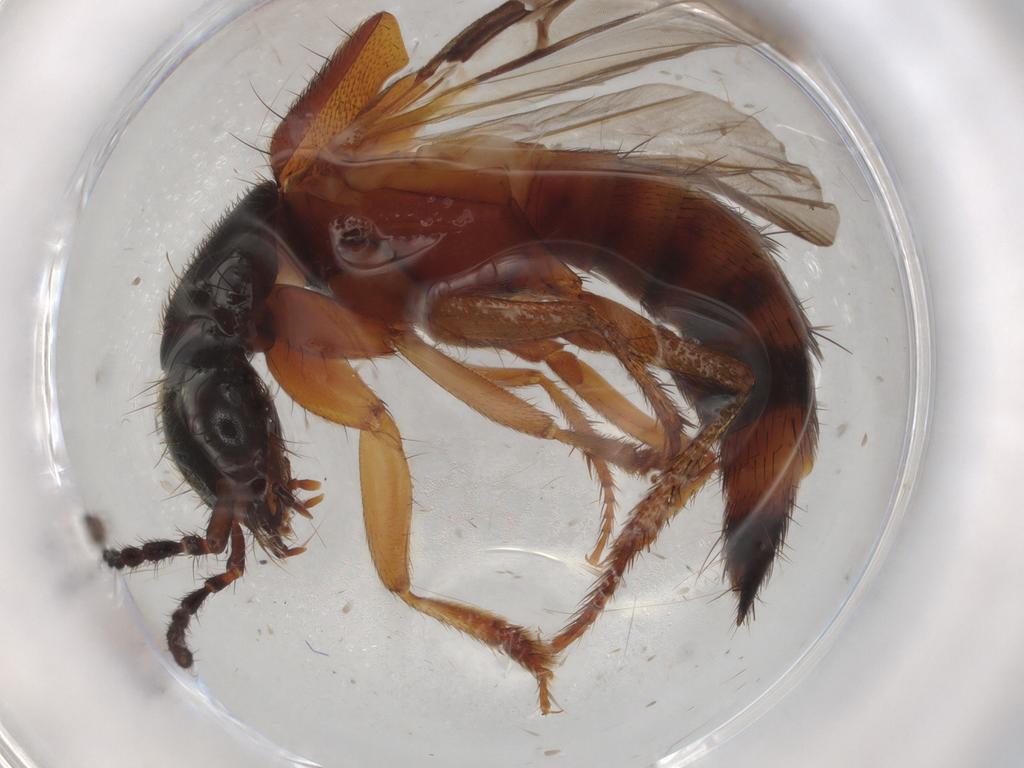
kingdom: Animalia
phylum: Arthropoda
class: Insecta
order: Coleoptera
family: Staphylinidae
